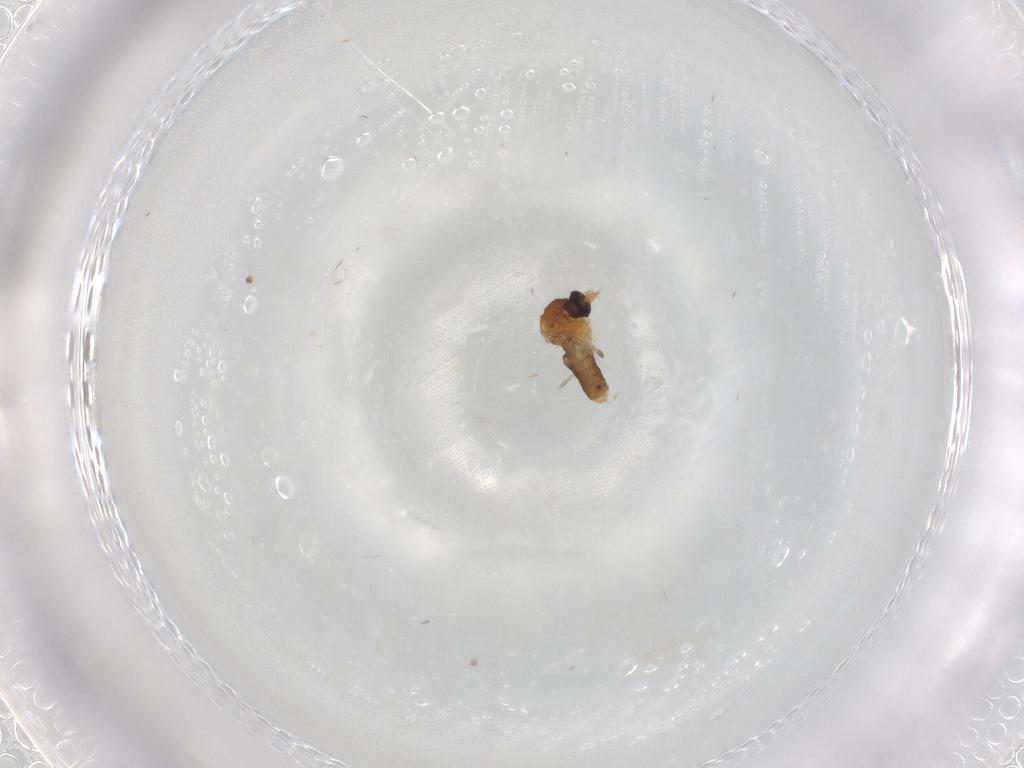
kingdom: Animalia
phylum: Arthropoda
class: Insecta
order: Diptera
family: Ceratopogonidae
